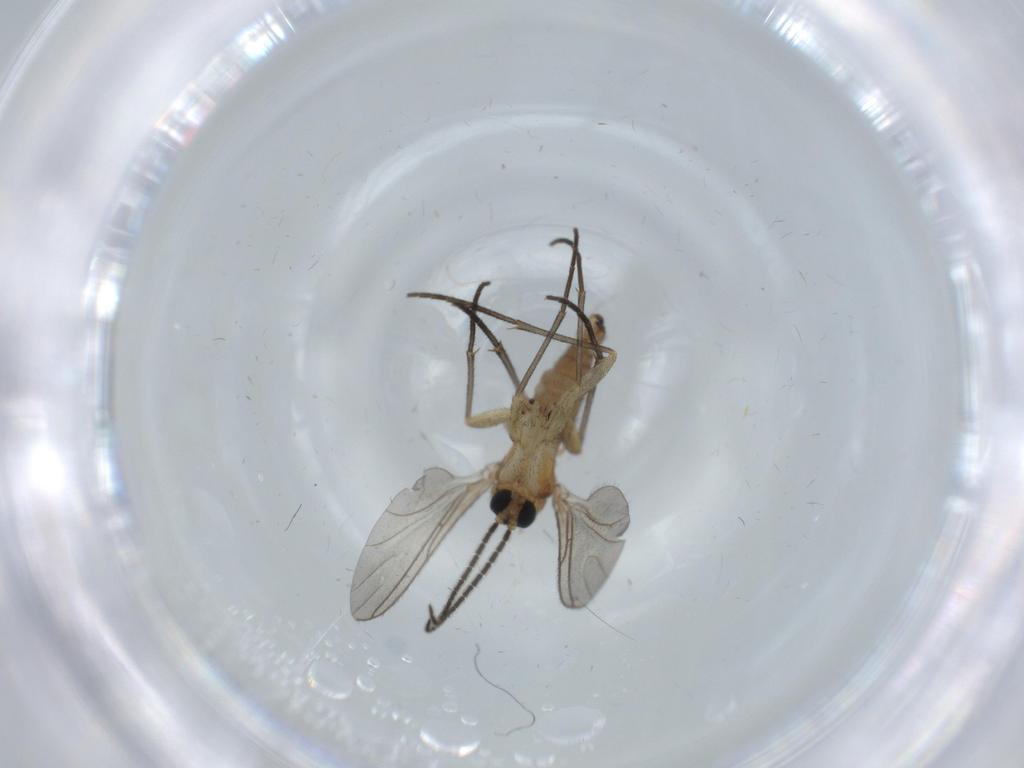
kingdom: Animalia
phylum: Arthropoda
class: Insecta
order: Diptera
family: Sciaridae
